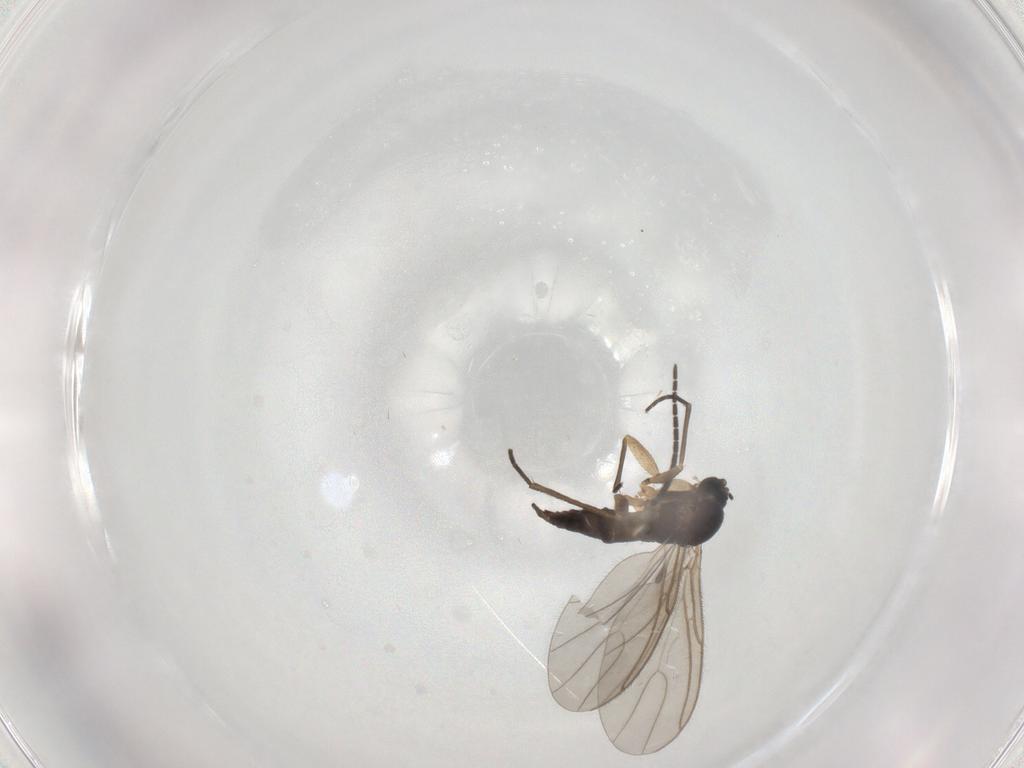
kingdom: Animalia
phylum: Arthropoda
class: Insecta
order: Diptera
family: Sciaridae
